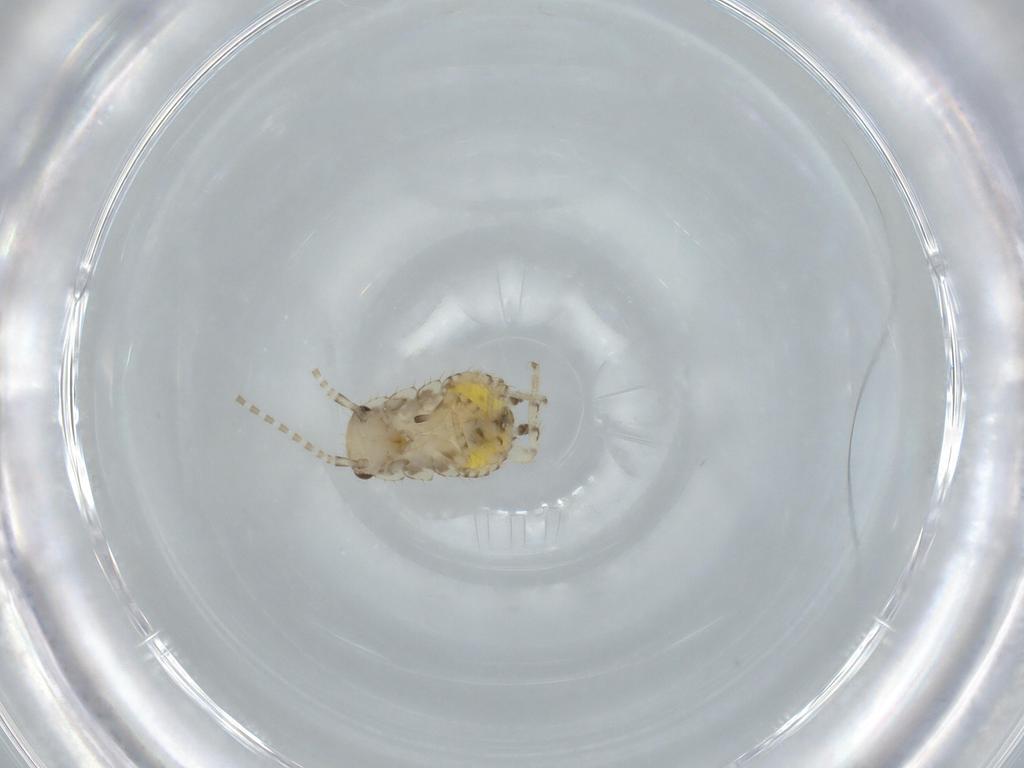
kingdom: Animalia
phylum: Arthropoda
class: Insecta
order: Blattodea
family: Ectobiidae
